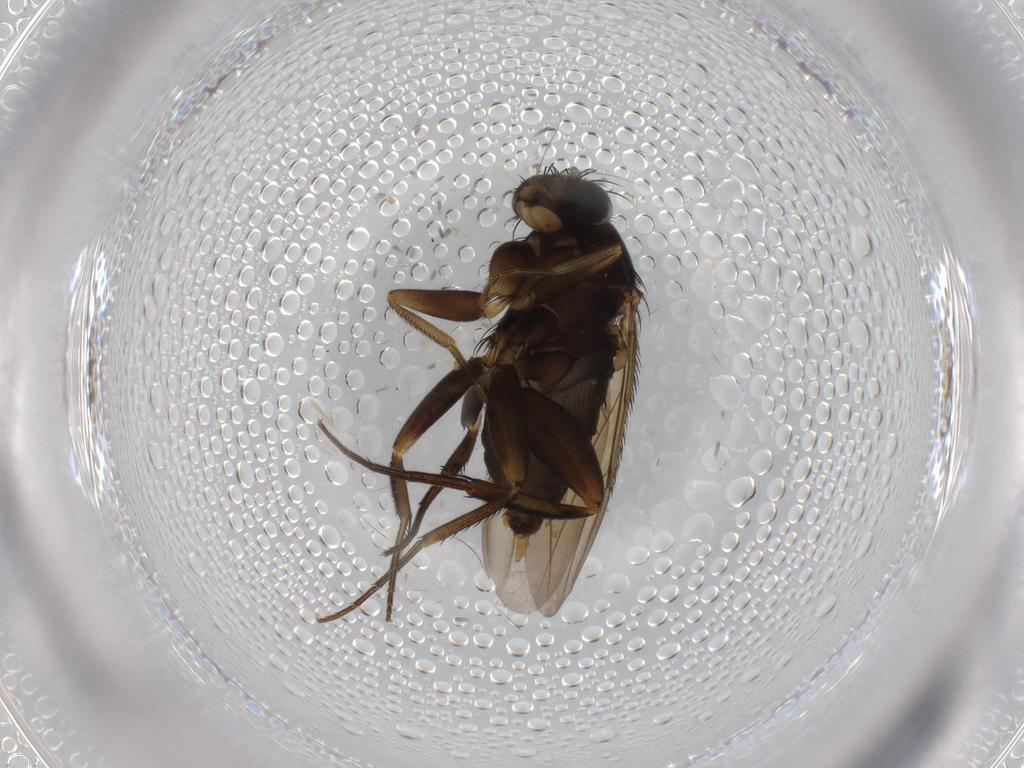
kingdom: Animalia
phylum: Arthropoda
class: Insecta
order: Diptera
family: Phoridae
